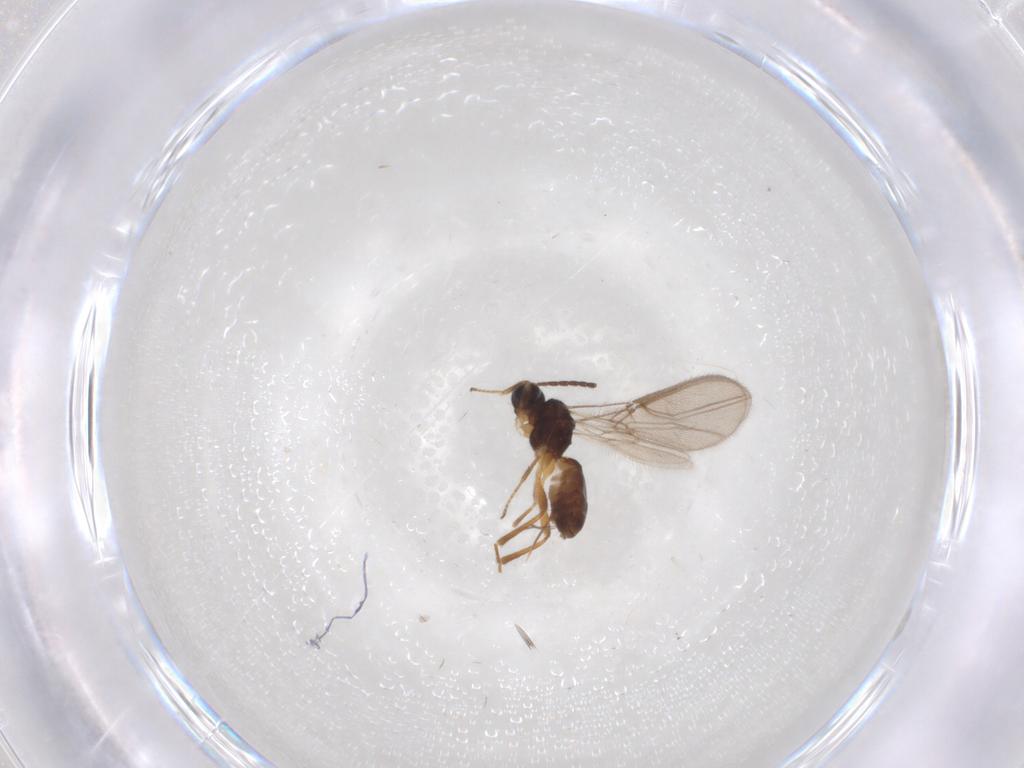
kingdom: Animalia
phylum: Arthropoda
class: Insecta
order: Hymenoptera
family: Braconidae
